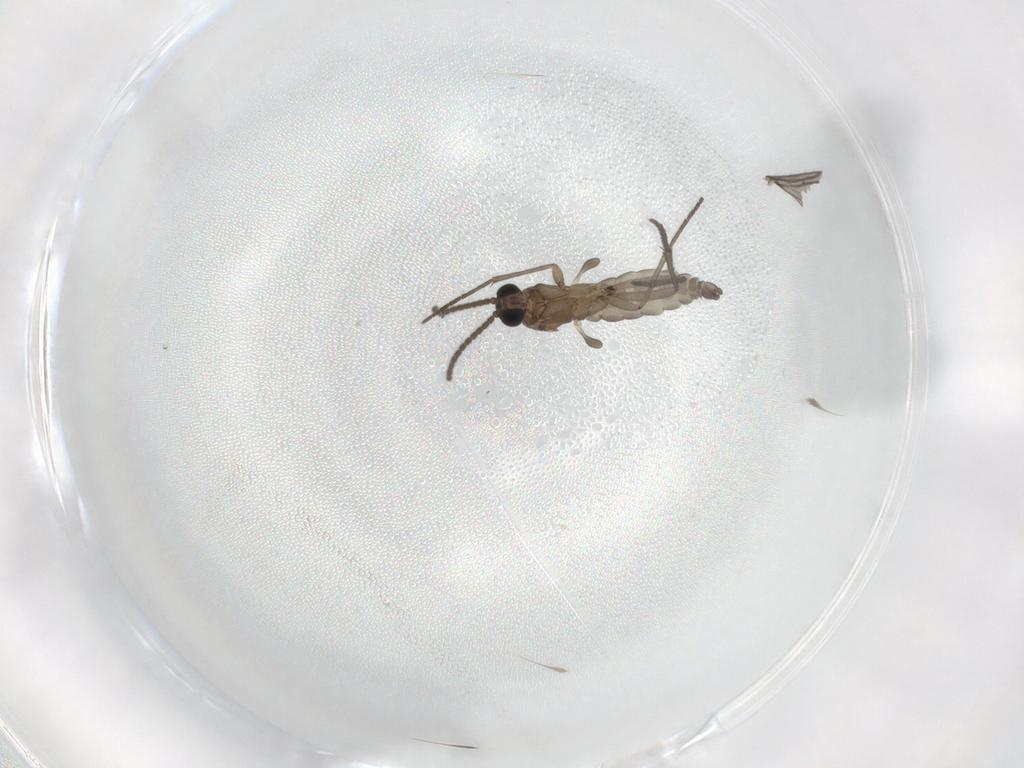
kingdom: Animalia
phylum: Arthropoda
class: Insecta
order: Diptera
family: Sciaridae
